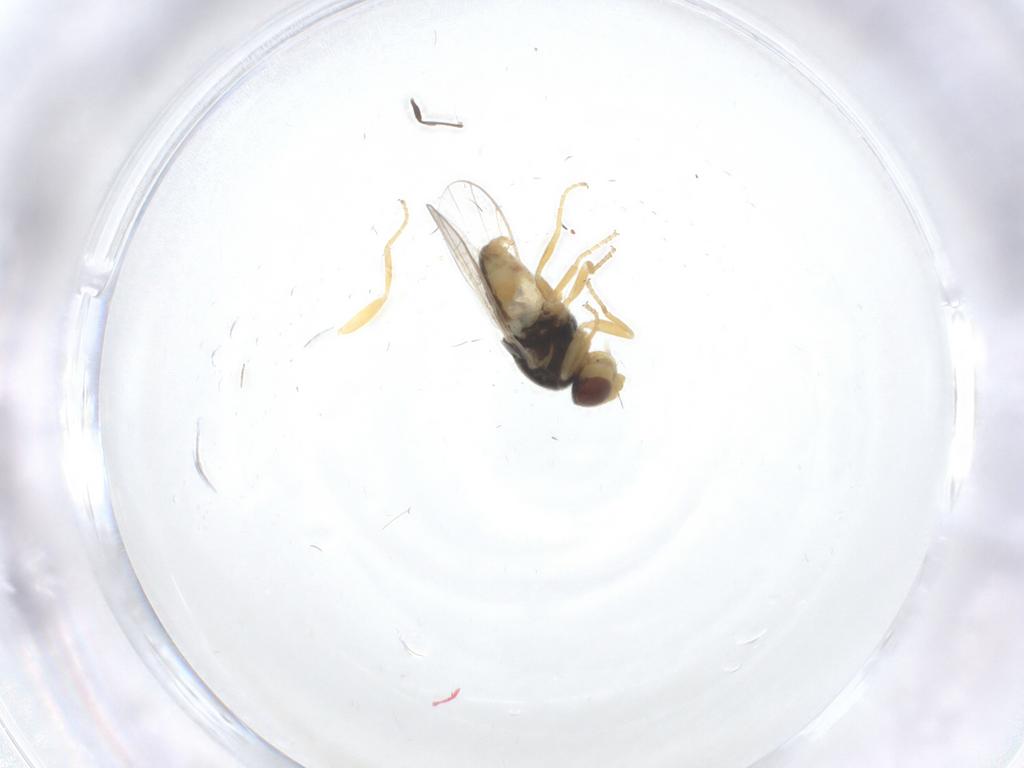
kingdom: Animalia
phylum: Arthropoda
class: Insecta
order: Diptera
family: Chloropidae
